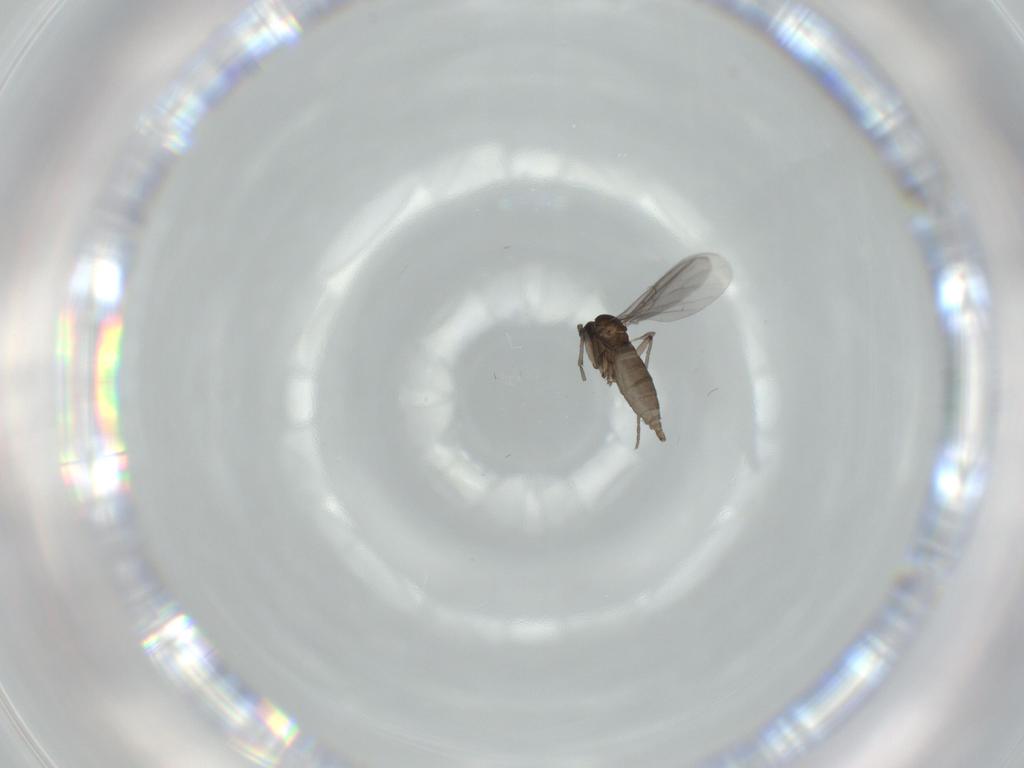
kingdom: Animalia
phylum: Arthropoda
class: Insecta
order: Diptera
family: Sciaridae
